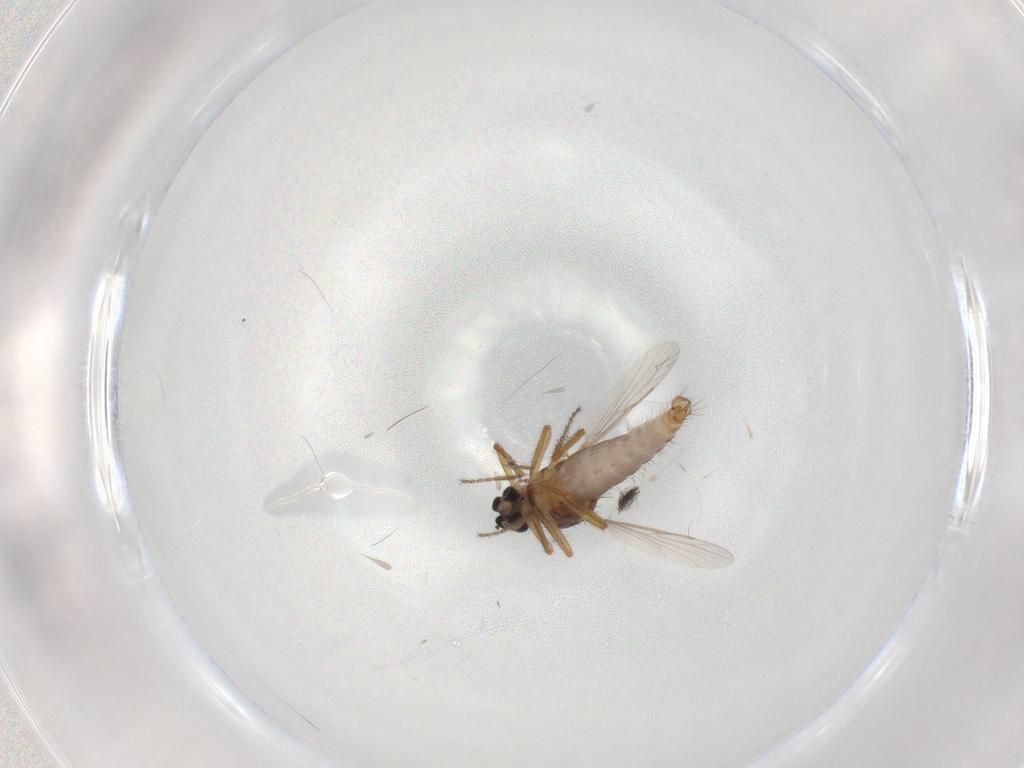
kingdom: Animalia
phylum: Arthropoda
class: Insecta
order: Diptera
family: Ceratopogonidae
